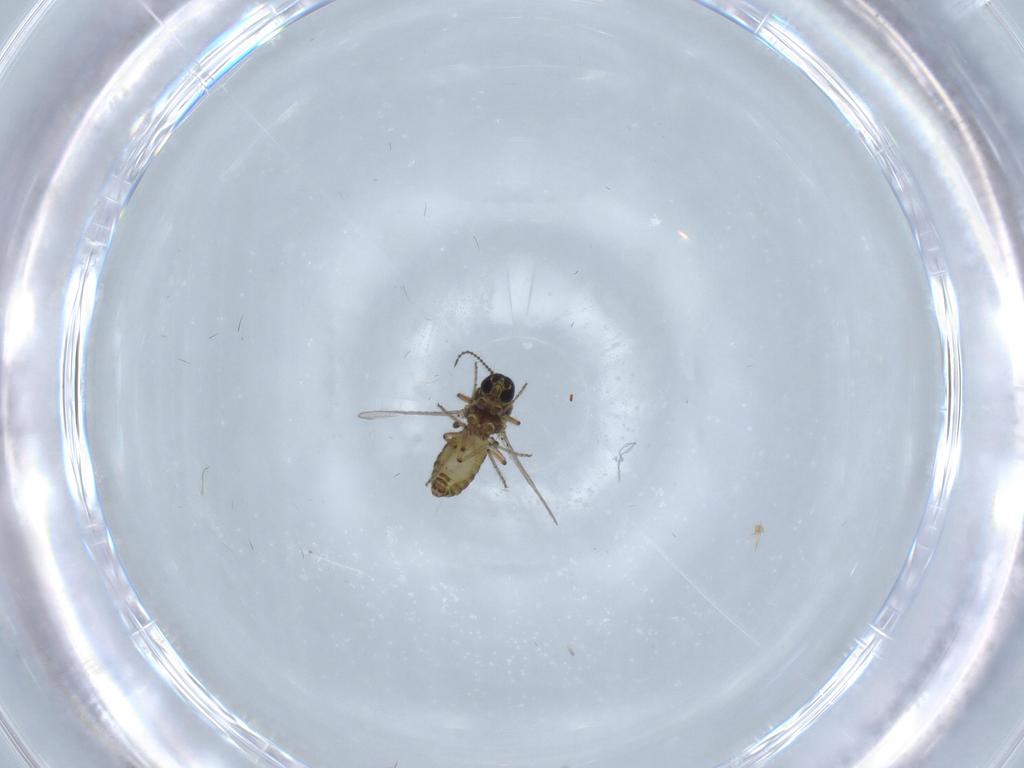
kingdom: Animalia
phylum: Arthropoda
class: Insecta
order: Diptera
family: Ceratopogonidae
